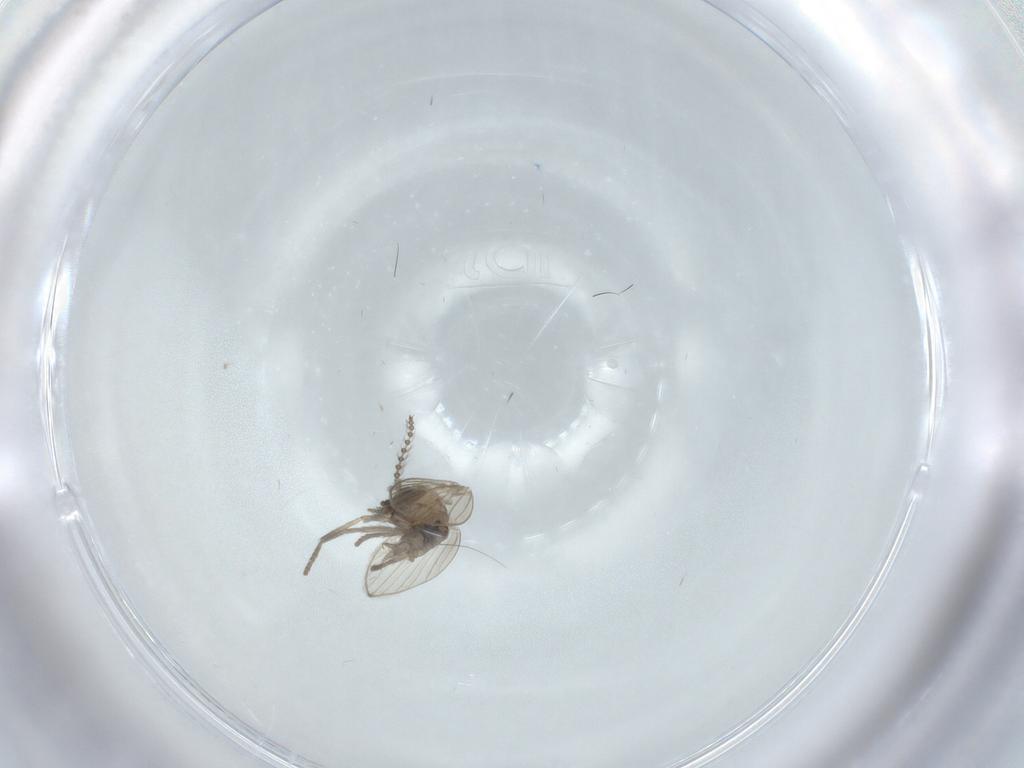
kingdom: Animalia
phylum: Arthropoda
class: Insecta
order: Diptera
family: Psychodidae
